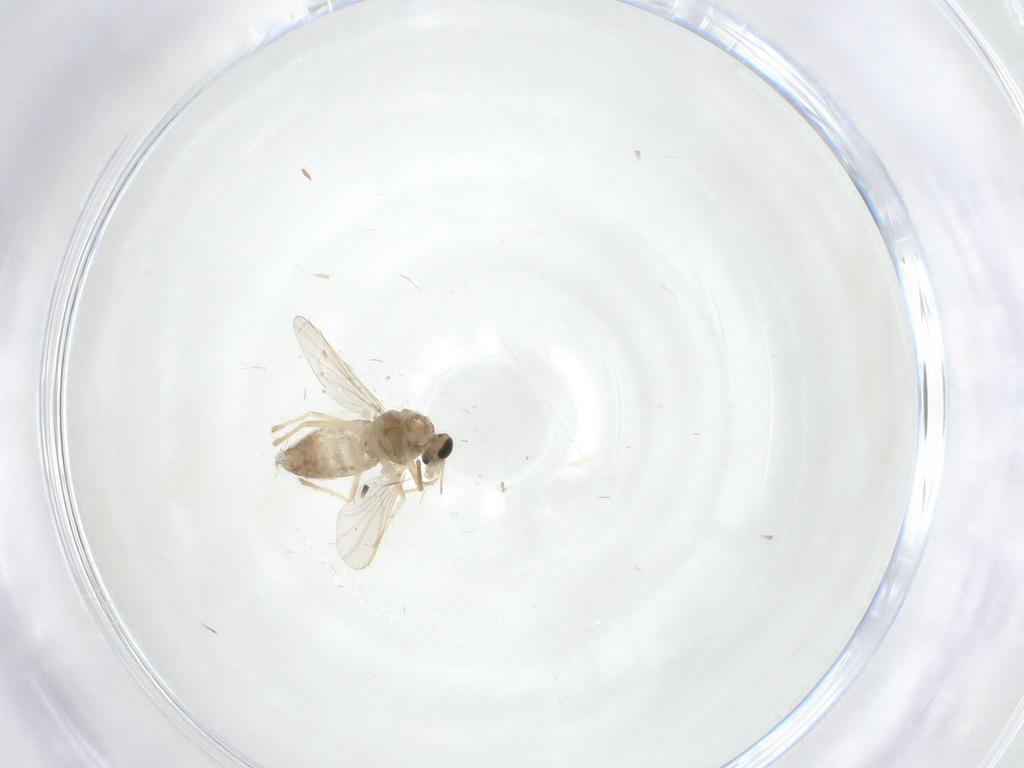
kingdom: Animalia
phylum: Arthropoda
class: Insecta
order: Diptera
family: Chironomidae
